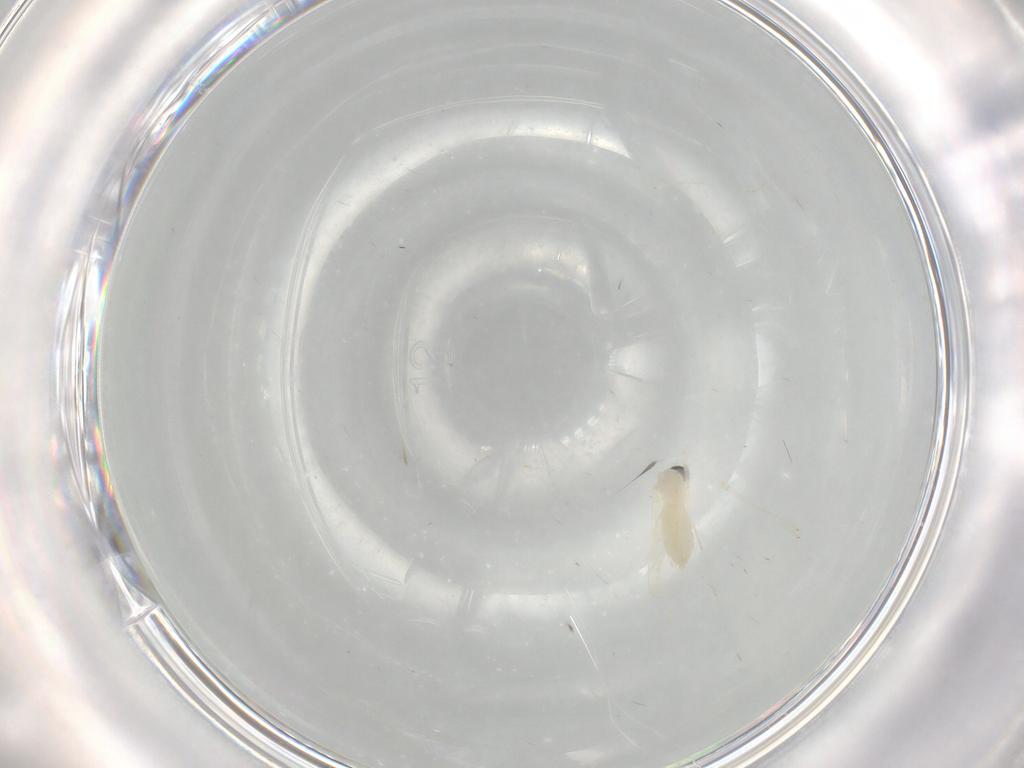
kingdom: Animalia
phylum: Arthropoda
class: Insecta
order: Diptera
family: Cecidomyiidae
